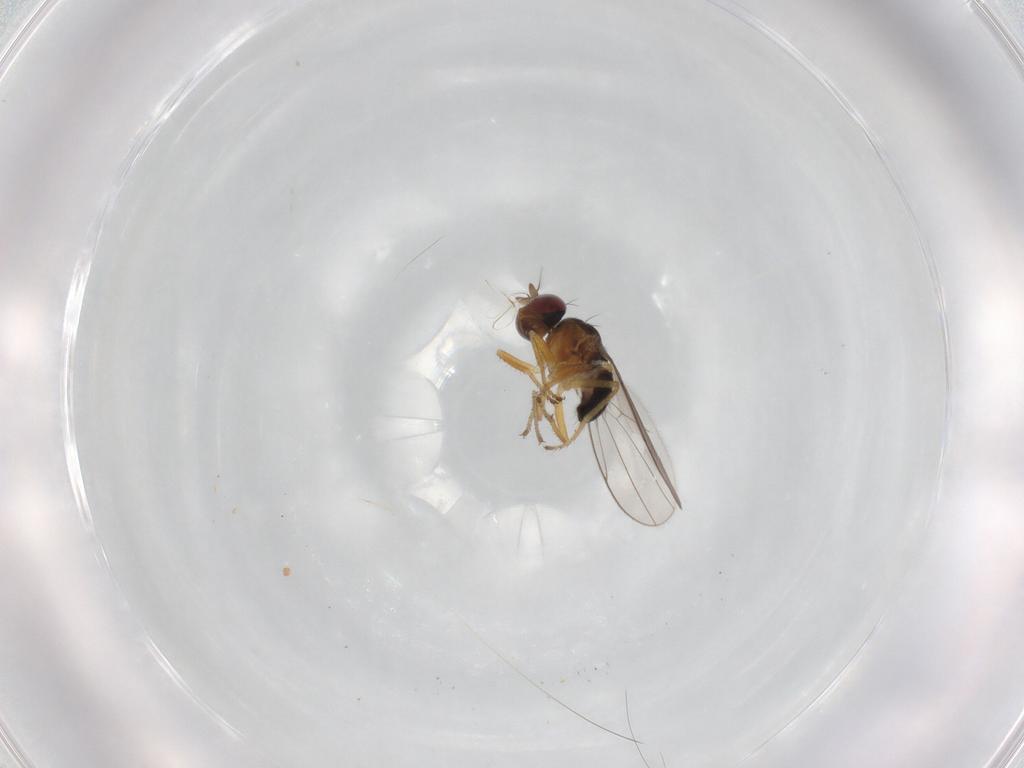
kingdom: Animalia
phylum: Arthropoda
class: Insecta
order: Diptera
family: Ephydridae
